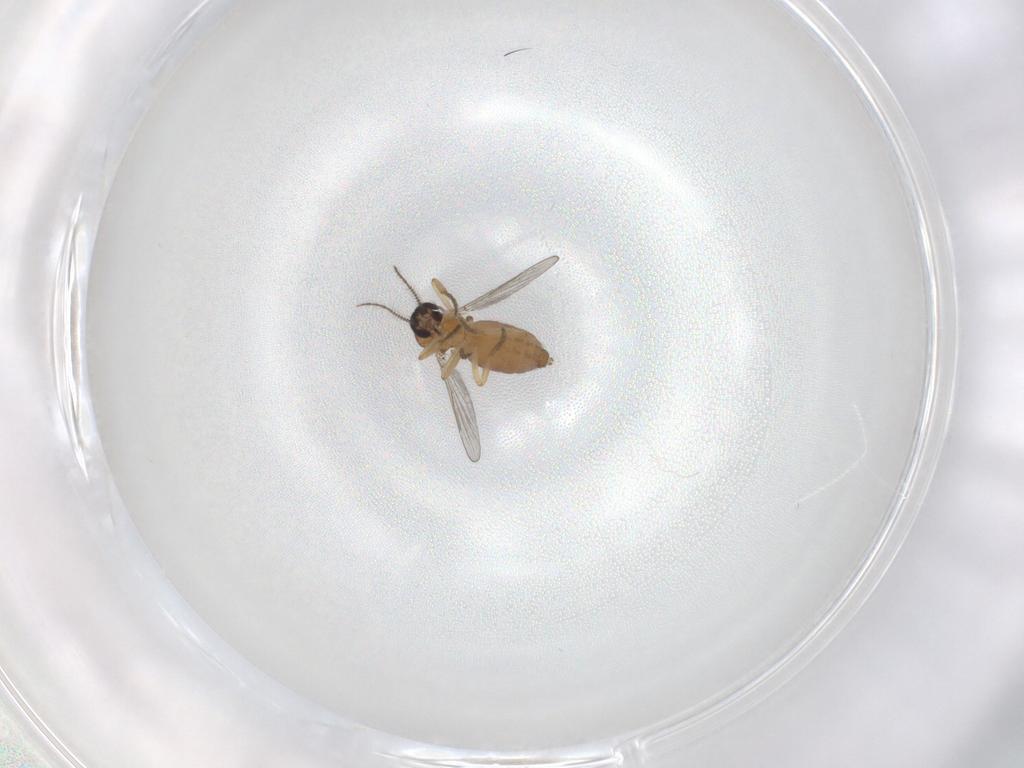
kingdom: Animalia
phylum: Arthropoda
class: Insecta
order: Diptera
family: Ceratopogonidae
